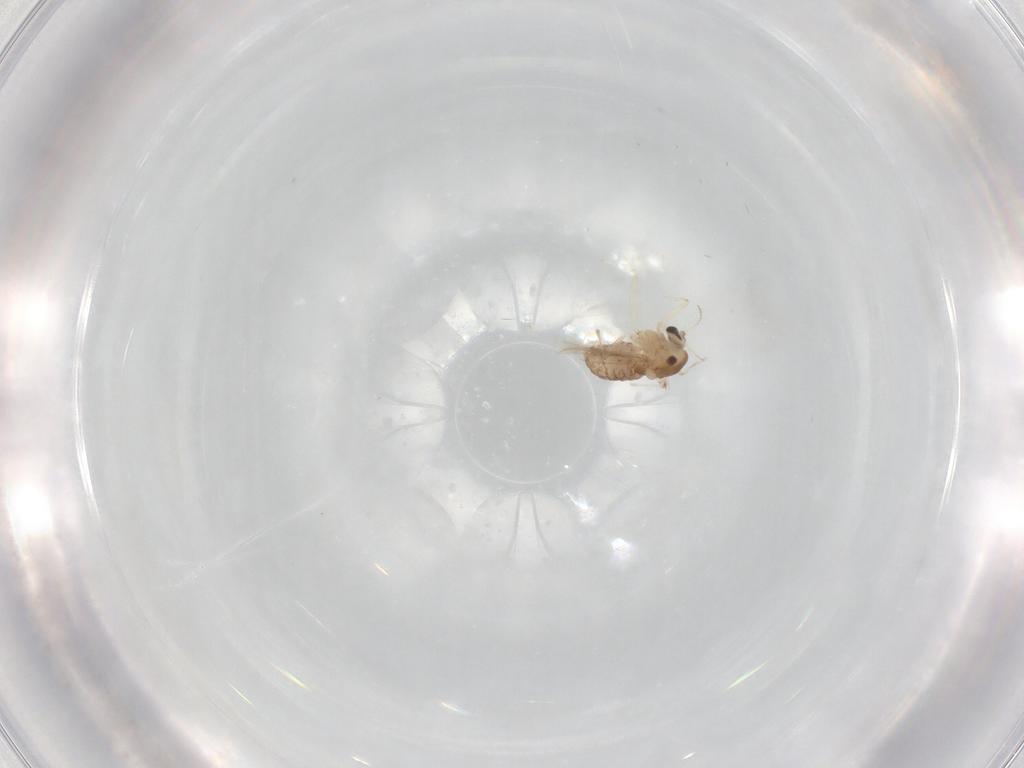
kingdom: Animalia
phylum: Arthropoda
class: Insecta
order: Diptera
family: Chironomidae
